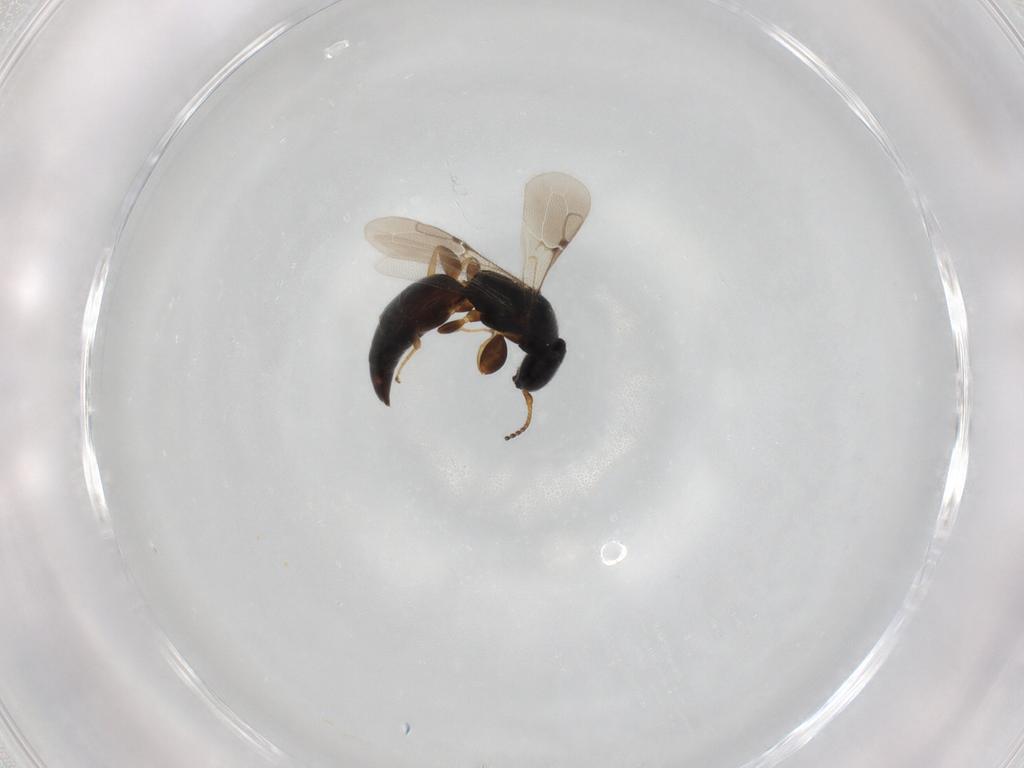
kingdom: Animalia
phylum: Arthropoda
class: Insecta
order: Hymenoptera
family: Bethylidae
